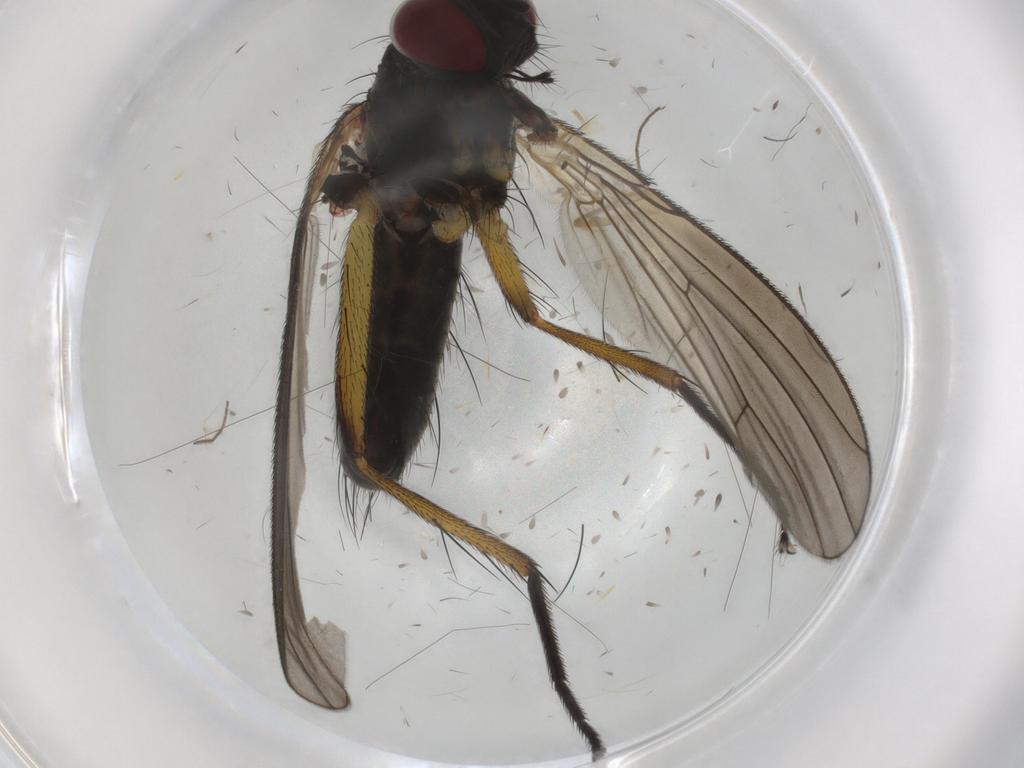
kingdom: Animalia
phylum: Arthropoda
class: Insecta
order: Diptera
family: Muscidae
